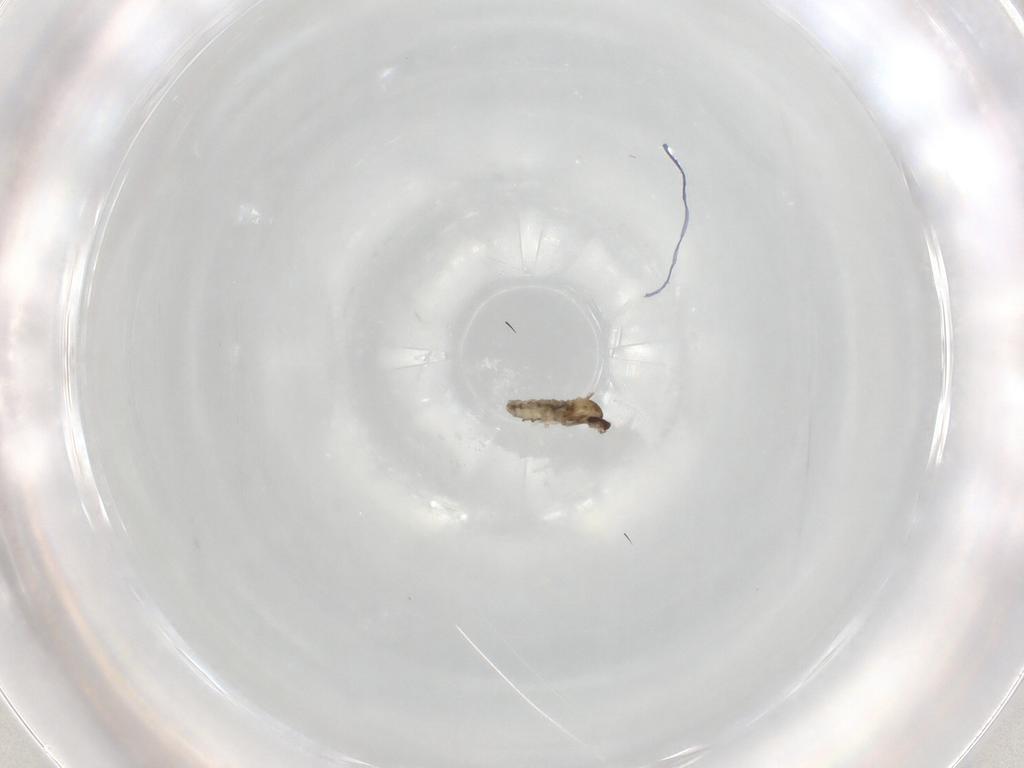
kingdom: Animalia
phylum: Arthropoda
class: Insecta
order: Diptera
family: Cecidomyiidae
